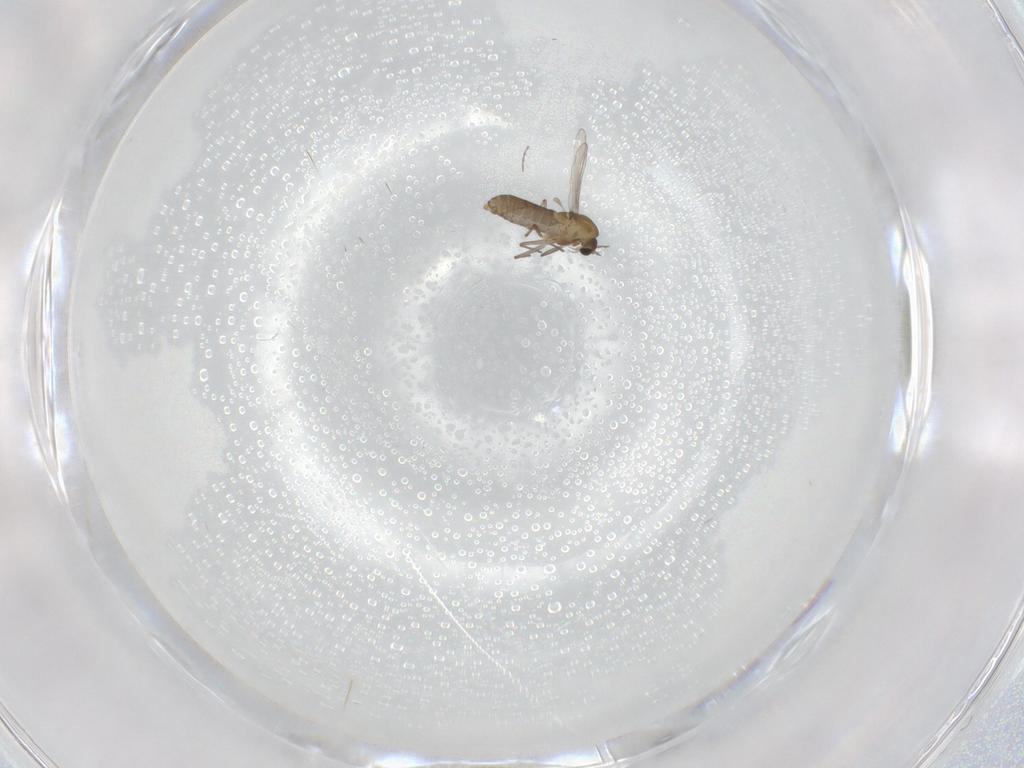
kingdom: Animalia
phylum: Arthropoda
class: Insecta
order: Diptera
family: Chironomidae
